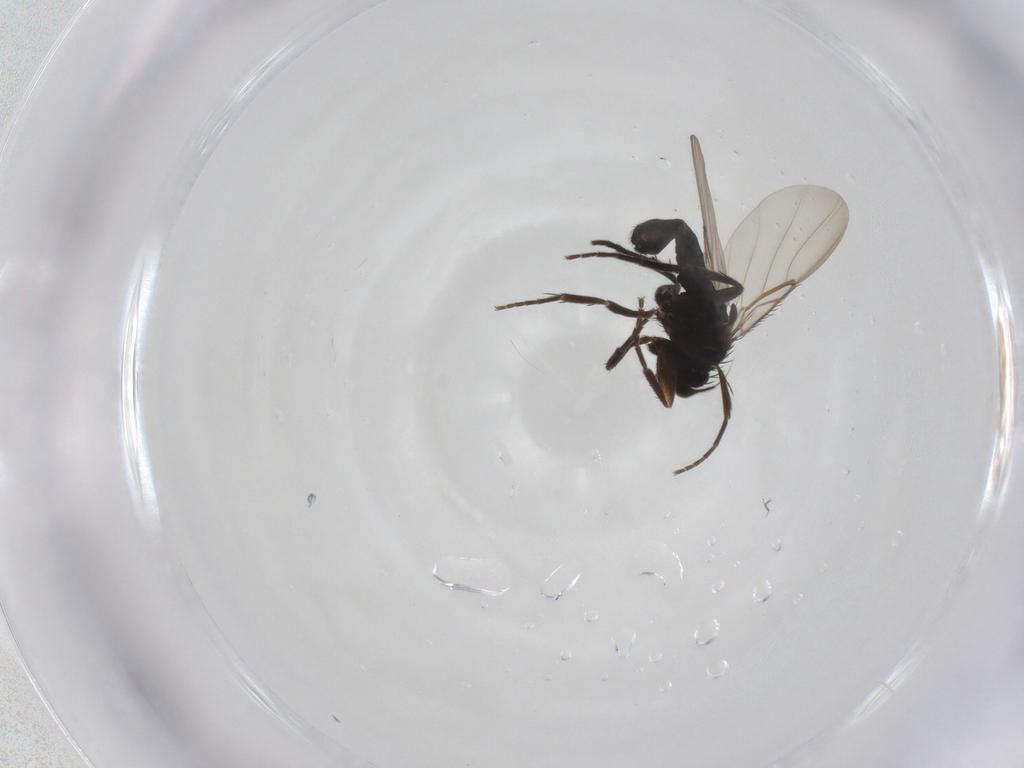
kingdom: Animalia
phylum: Arthropoda
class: Insecta
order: Diptera
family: Phoridae
